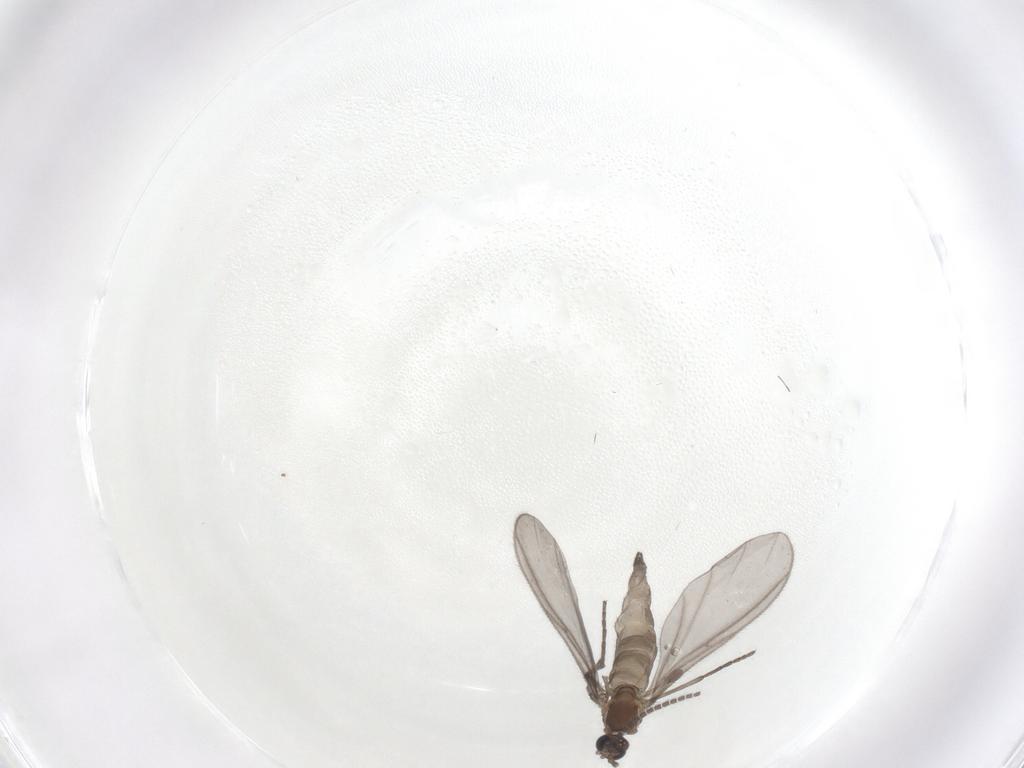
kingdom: Animalia
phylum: Arthropoda
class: Insecta
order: Diptera
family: Sciaridae
